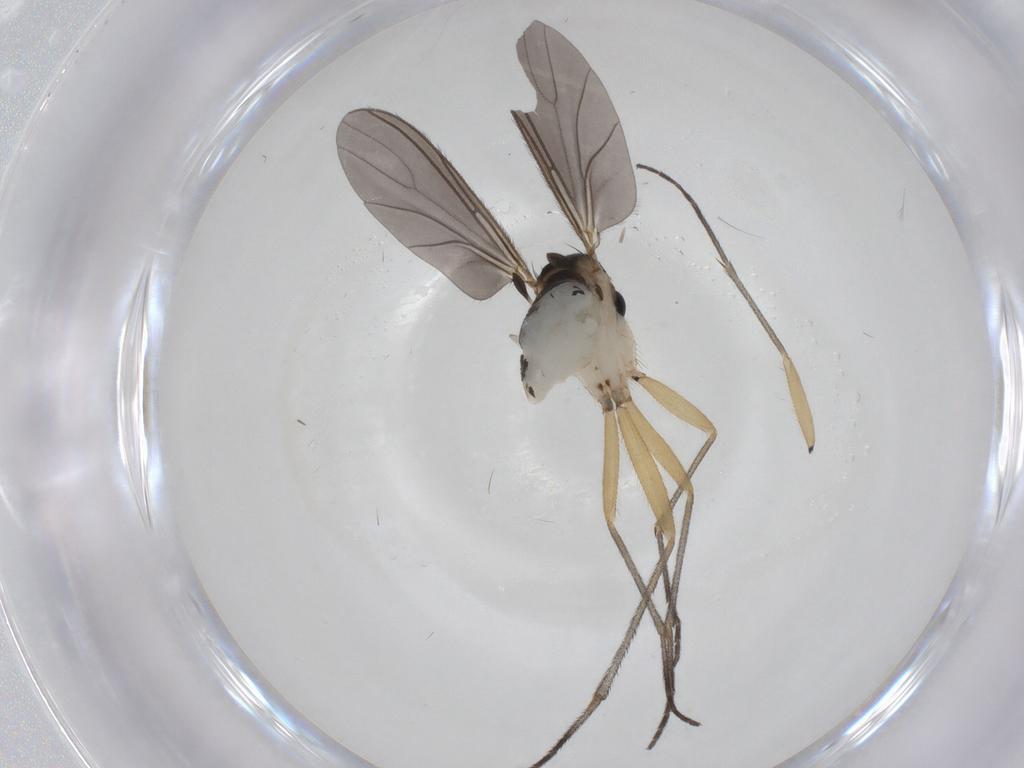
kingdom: Animalia
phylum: Arthropoda
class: Insecta
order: Diptera
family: Sciaridae
